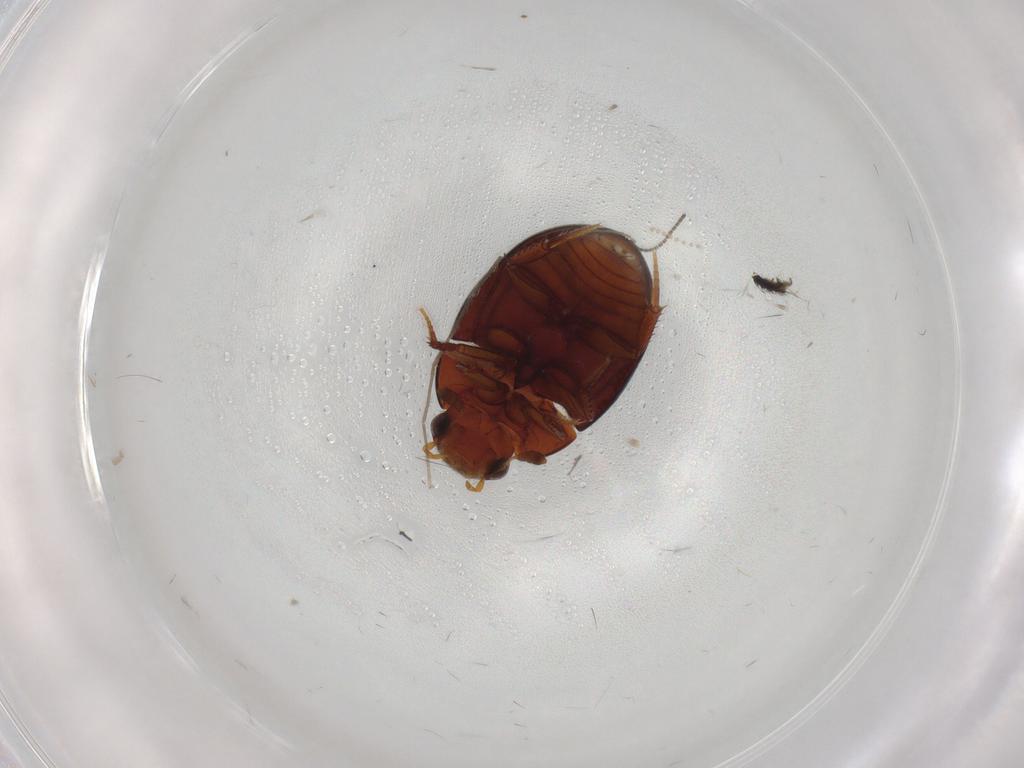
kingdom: Animalia
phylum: Arthropoda
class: Insecta
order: Coleoptera
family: Hydrophilidae
